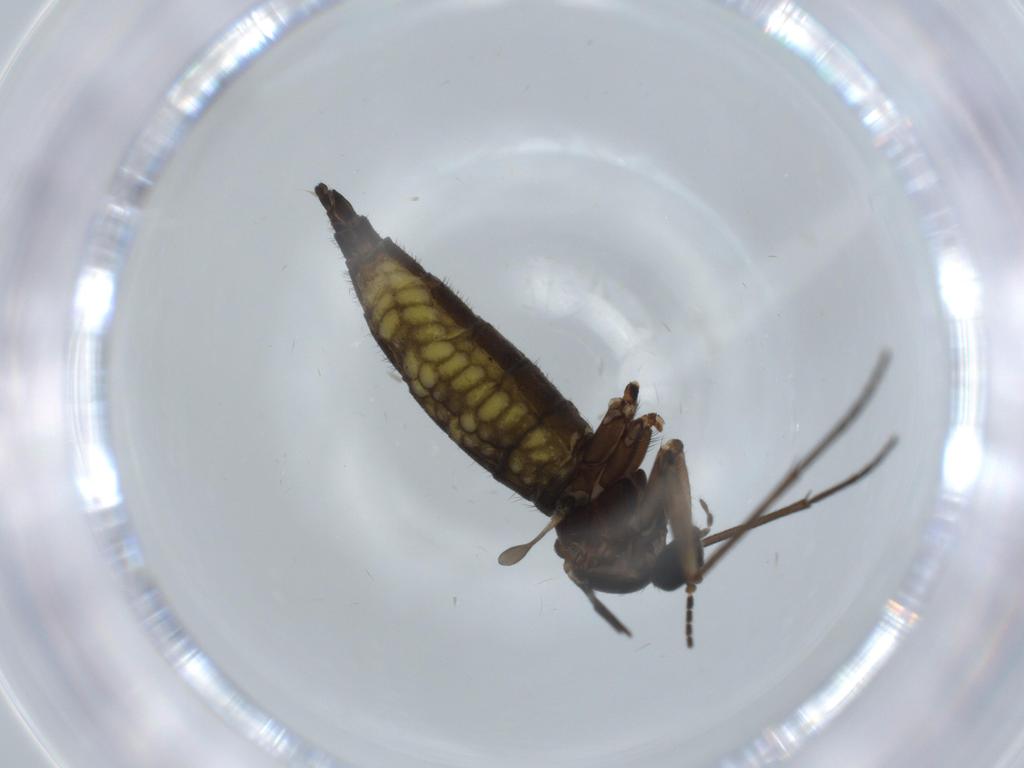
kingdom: Animalia
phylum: Arthropoda
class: Insecta
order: Diptera
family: Sciaridae
